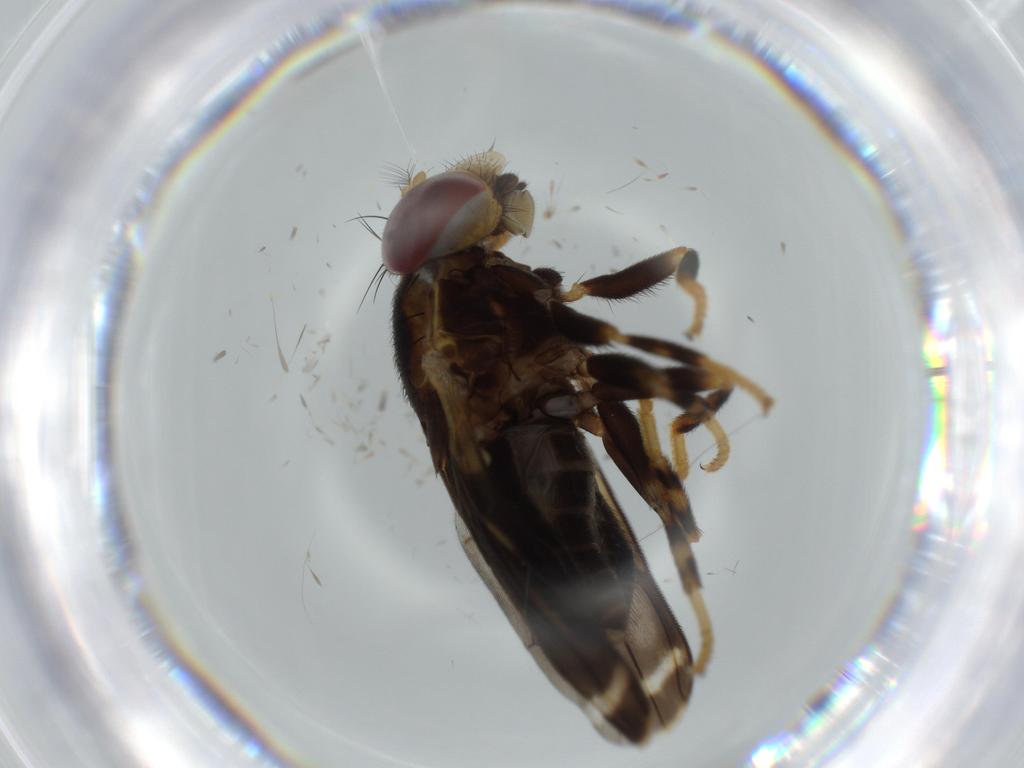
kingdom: Animalia
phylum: Arthropoda
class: Insecta
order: Diptera
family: Periscelididae
